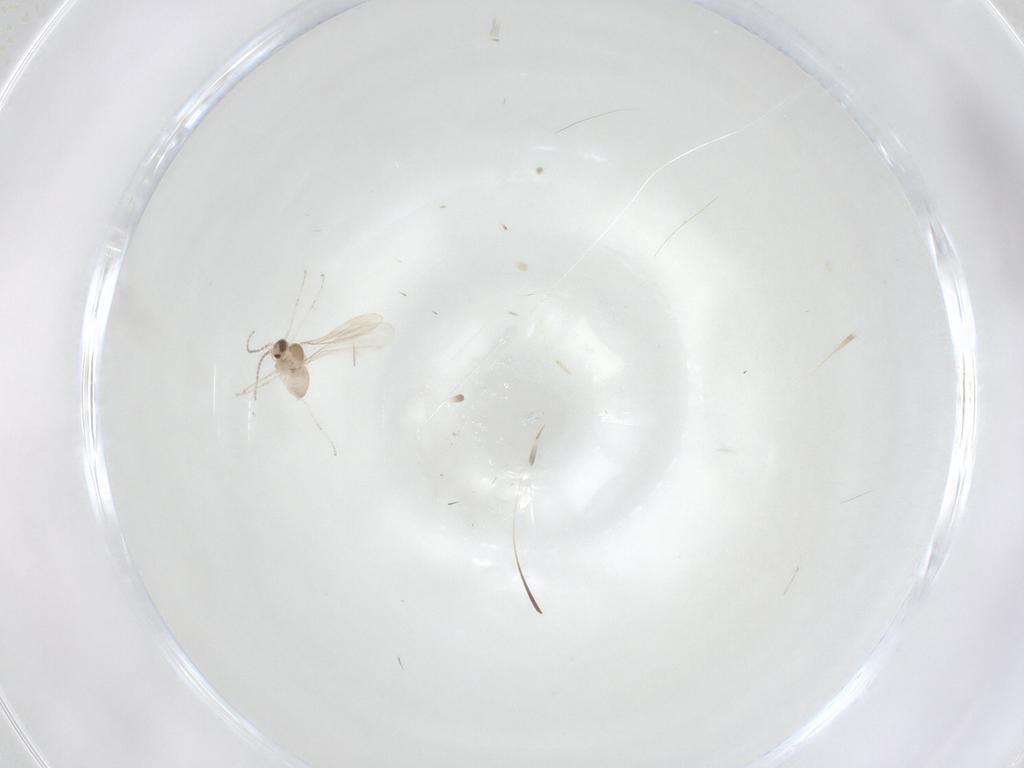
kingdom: Animalia
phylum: Arthropoda
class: Insecta
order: Diptera
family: Cecidomyiidae
